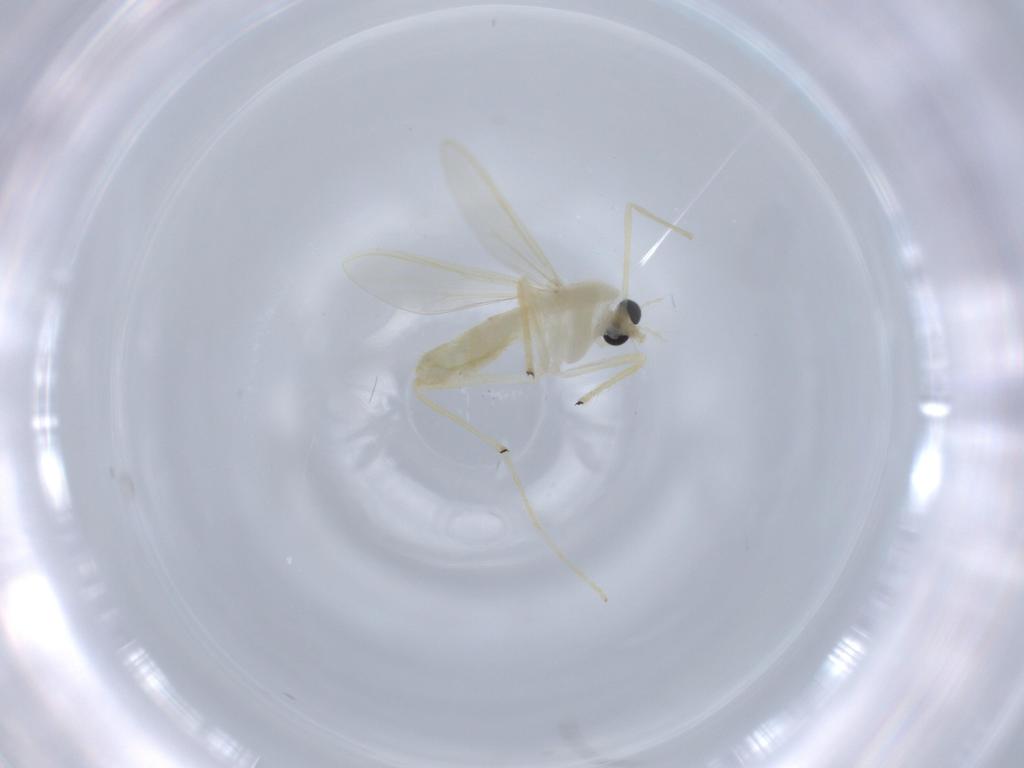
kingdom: Animalia
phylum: Arthropoda
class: Insecta
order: Diptera
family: Chironomidae
